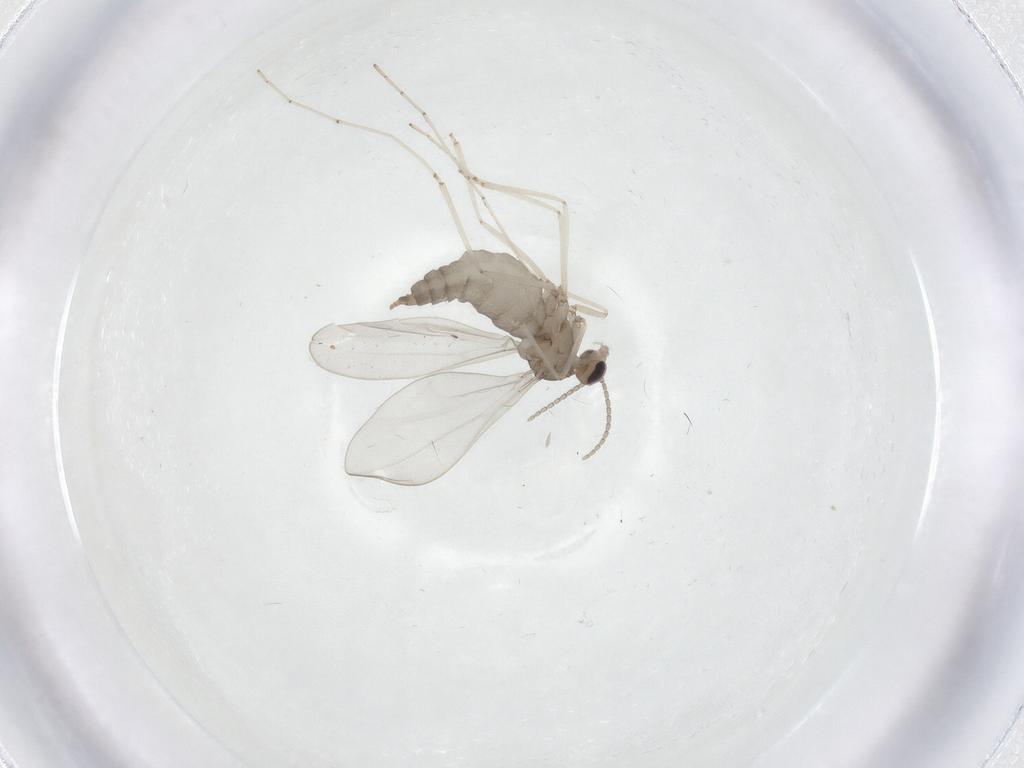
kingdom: Animalia
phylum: Arthropoda
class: Insecta
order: Diptera
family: Cecidomyiidae
